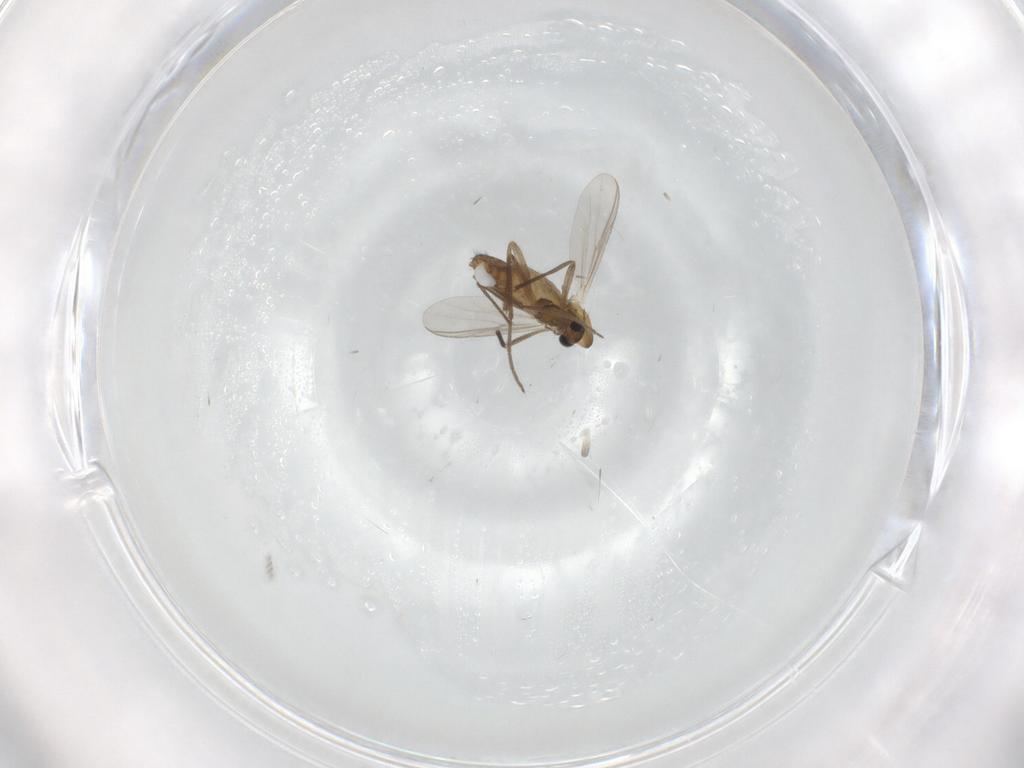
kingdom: Animalia
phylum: Arthropoda
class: Insecta
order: Diptera
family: Chironomidae
